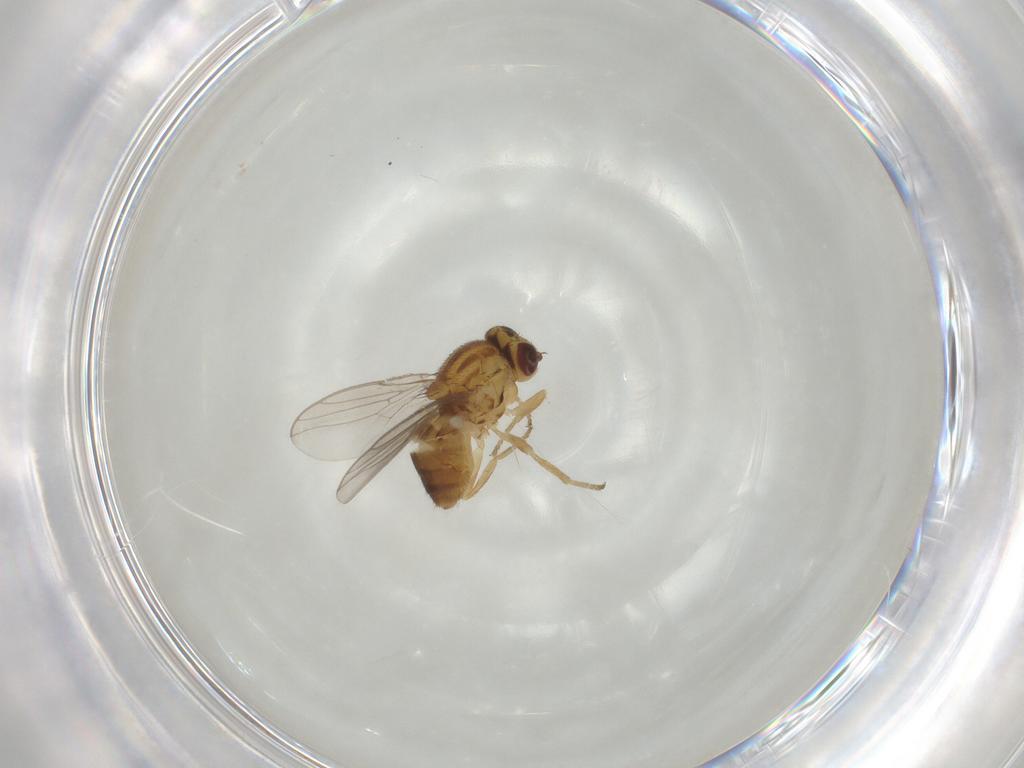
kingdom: Animalia
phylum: Arthropoda
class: Insecta
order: Diptera
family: Chloropidae
